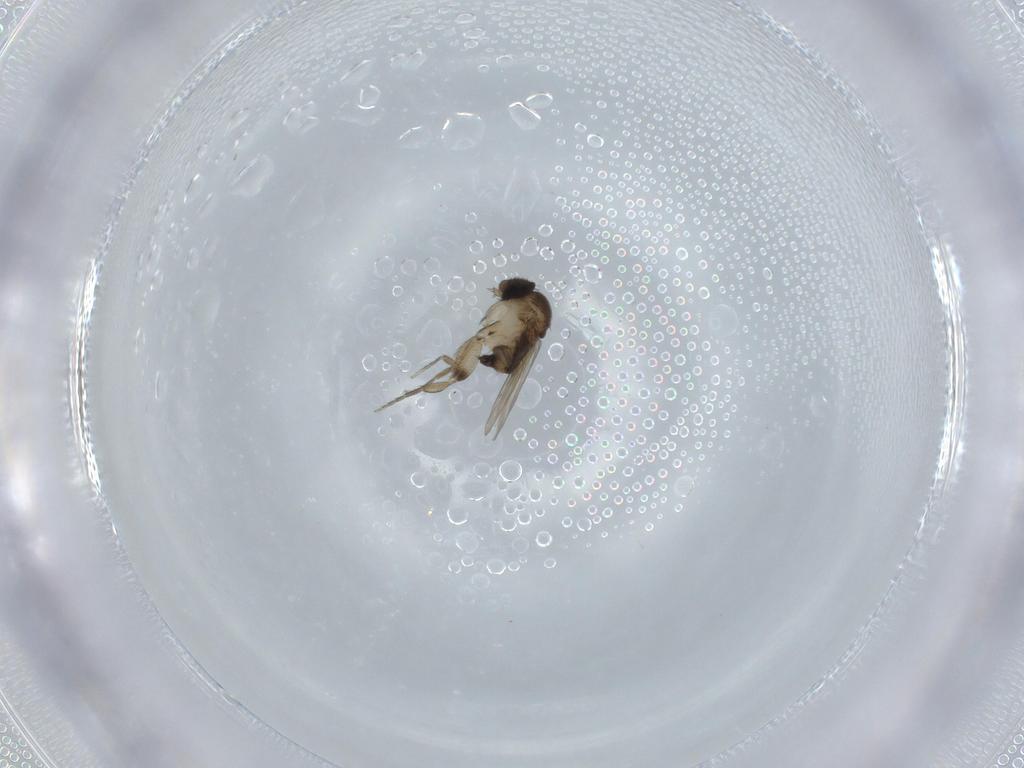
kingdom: Animalia
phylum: Arthropoda
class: Insecta
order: Diptera
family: Phoridae
